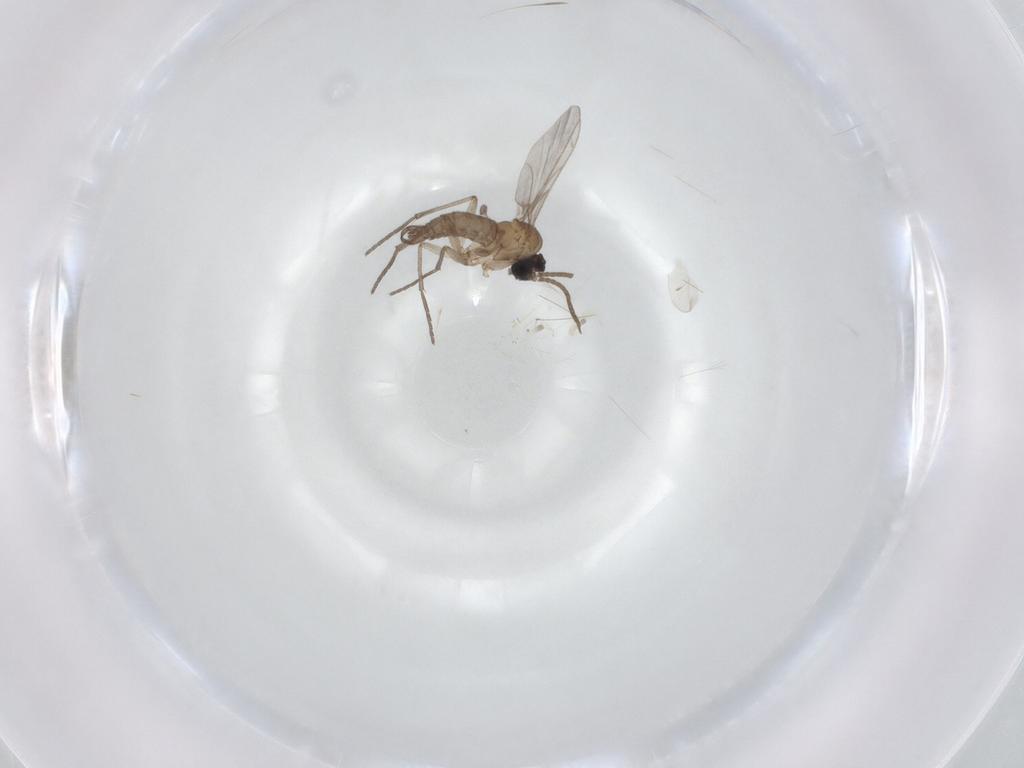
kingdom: Animalia
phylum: Arthropoda
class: Insecta
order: Diptera
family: Sciaridae
